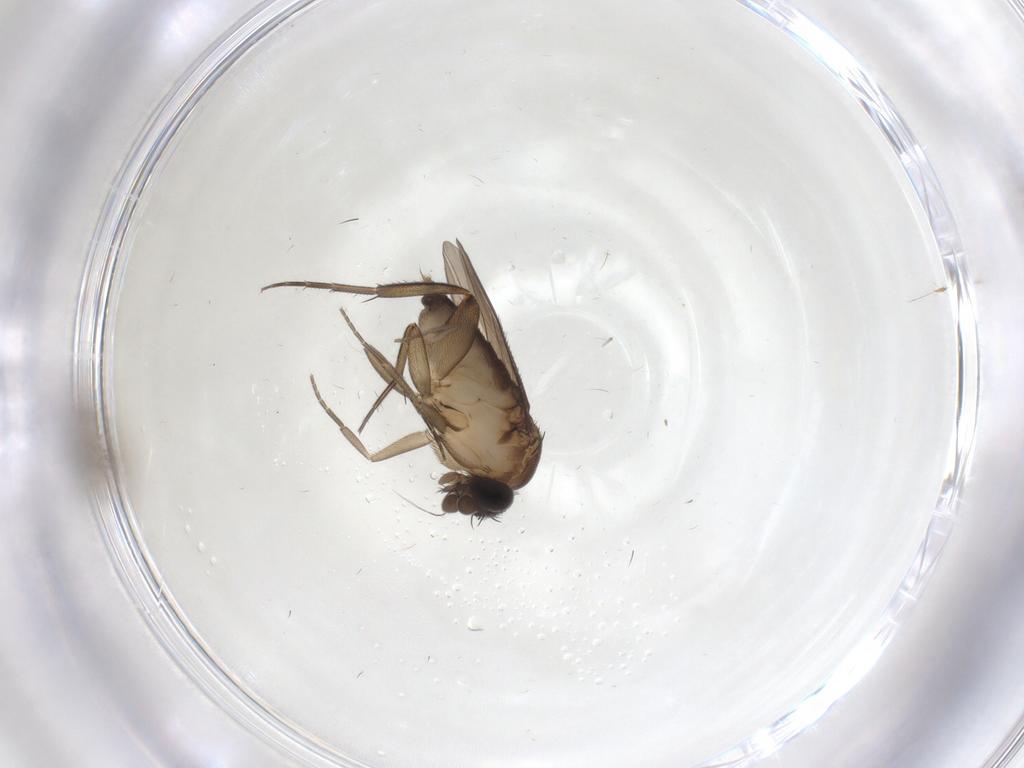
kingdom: Animalia
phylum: Arthropoda
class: Insecta
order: Diptera
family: Phoridae
